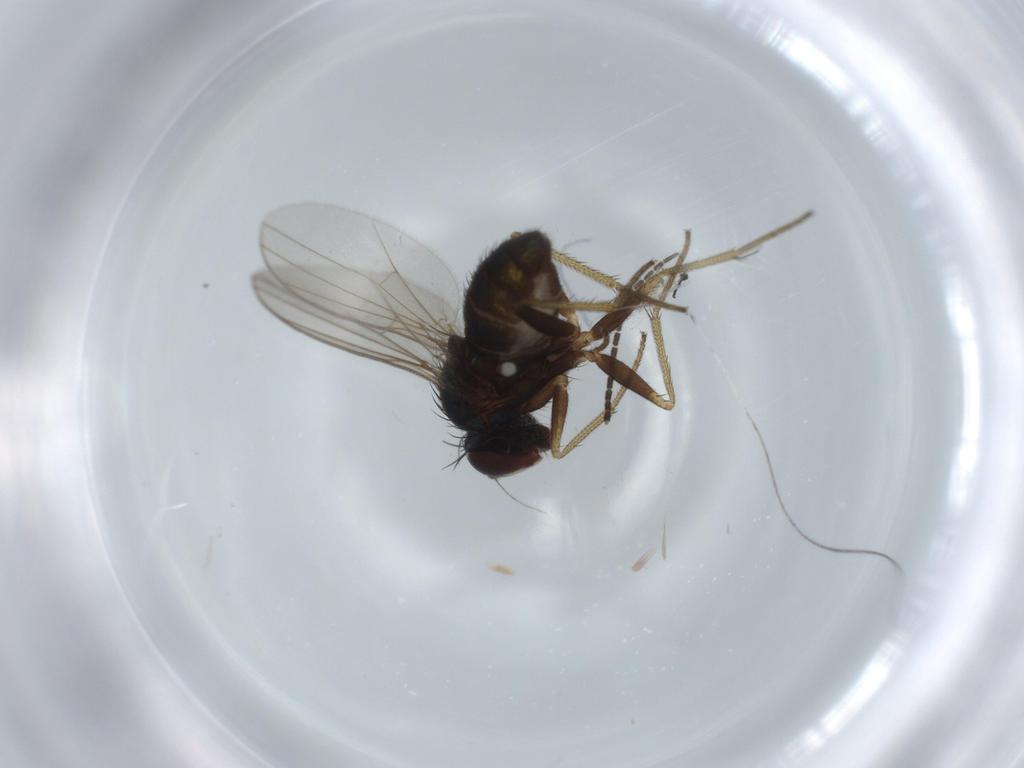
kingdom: Animalia
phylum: Arthropoda
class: Insecta
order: Diptera
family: Sciaridae
